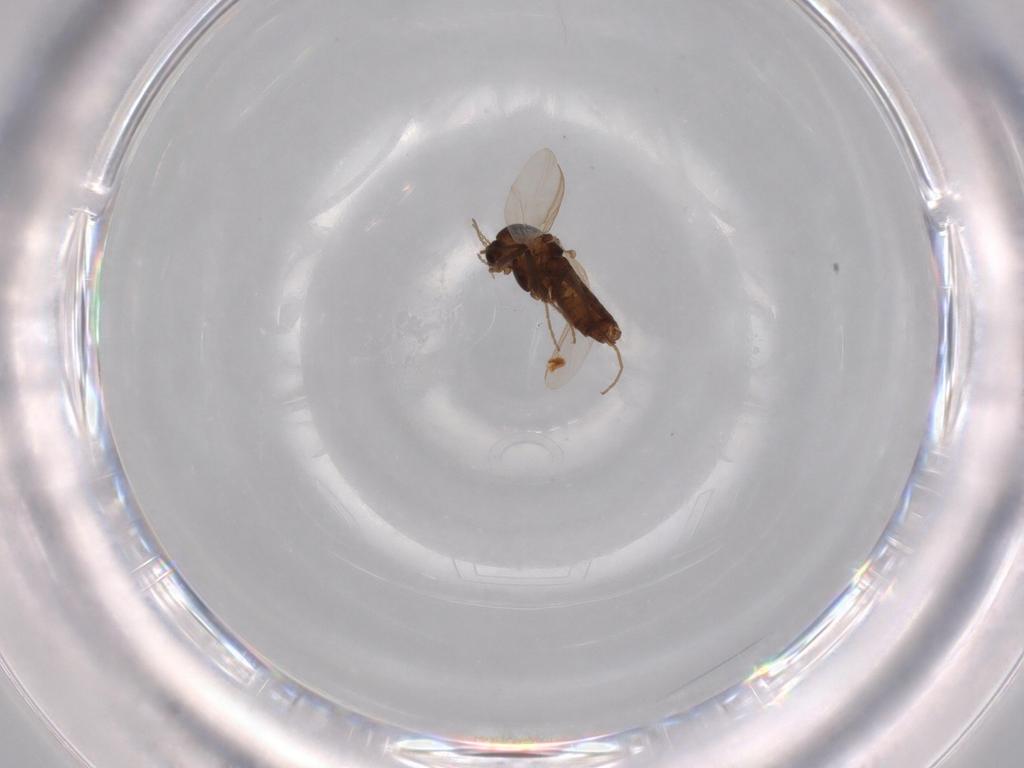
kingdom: Animalia
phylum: Arthropoda
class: Insecta
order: Diptera
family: Chironomidae
